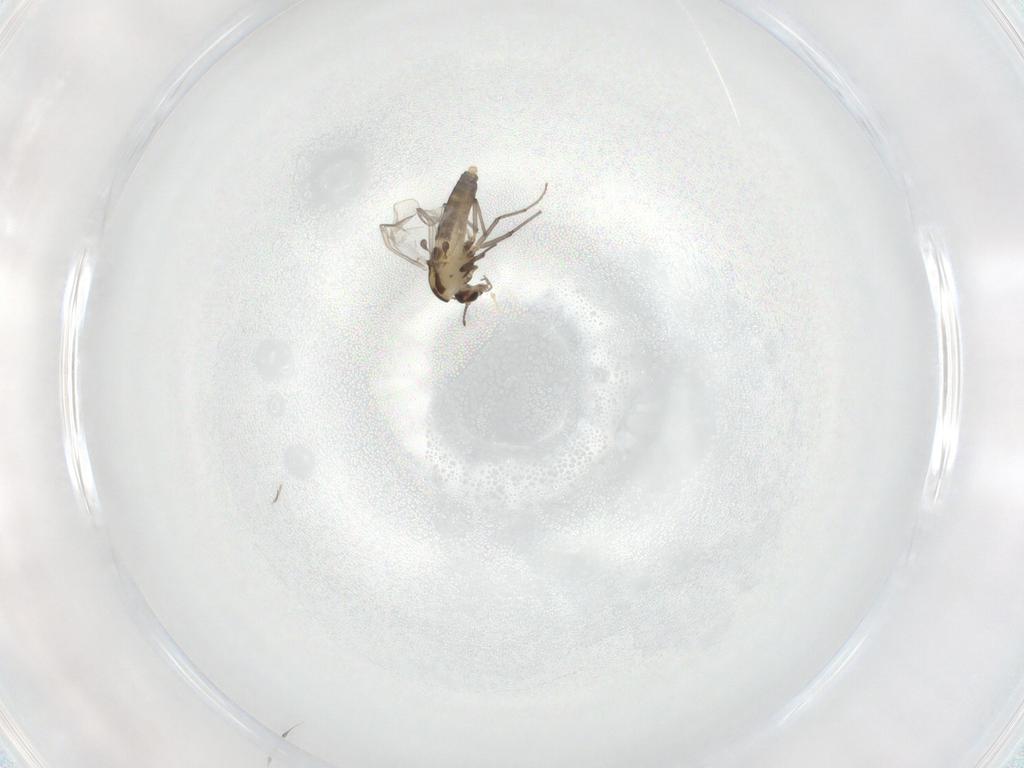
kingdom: Animalia
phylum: Arthropoda
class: Insecta
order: Diptera
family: Chironomidae
